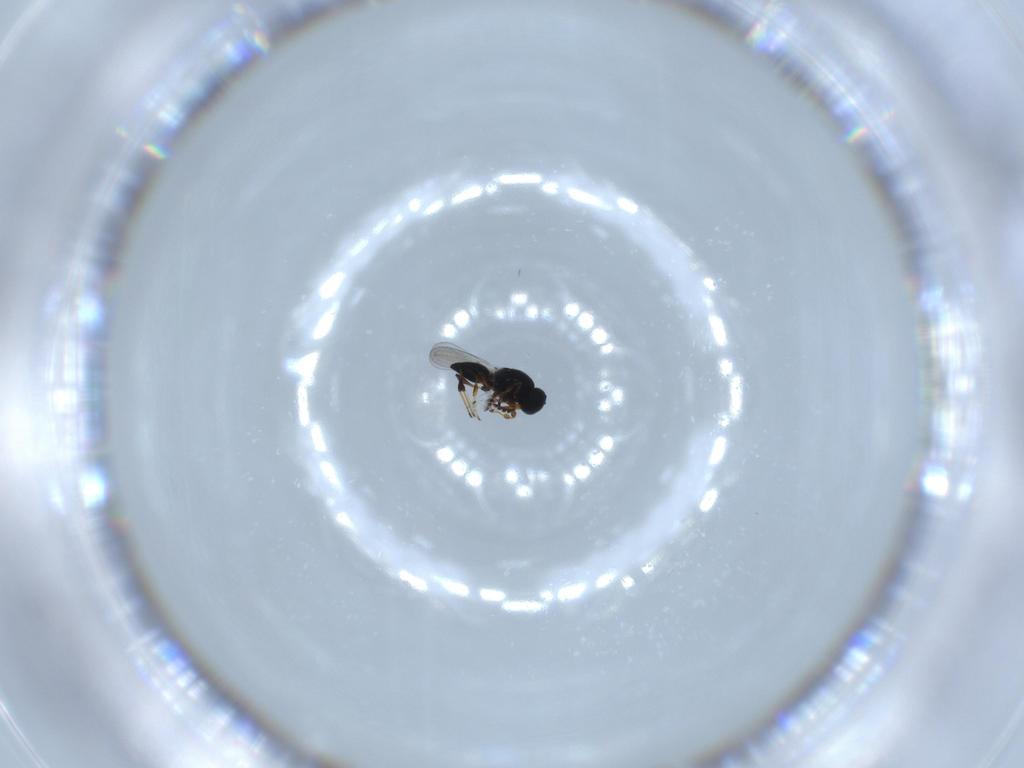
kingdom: Animalia
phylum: Arthropoda
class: Insecta
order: Hymenoptera
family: Platygastridae
